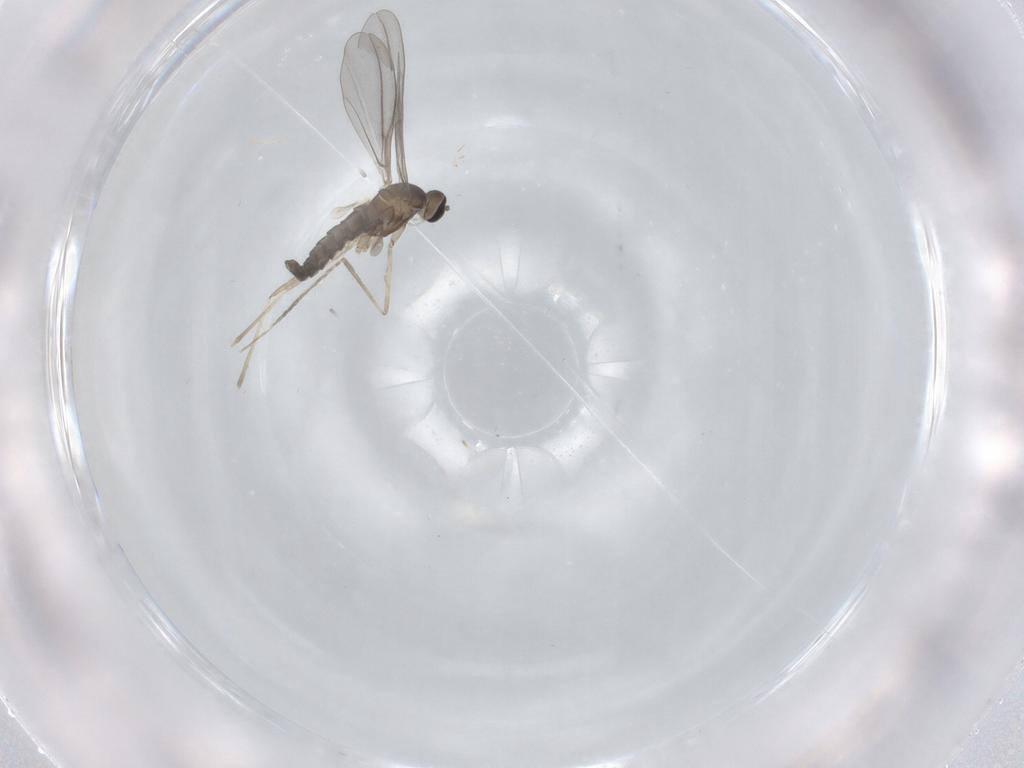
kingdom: Animalia
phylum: Arthropoda
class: Insecta
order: Diptera
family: Cecidomyiidae
